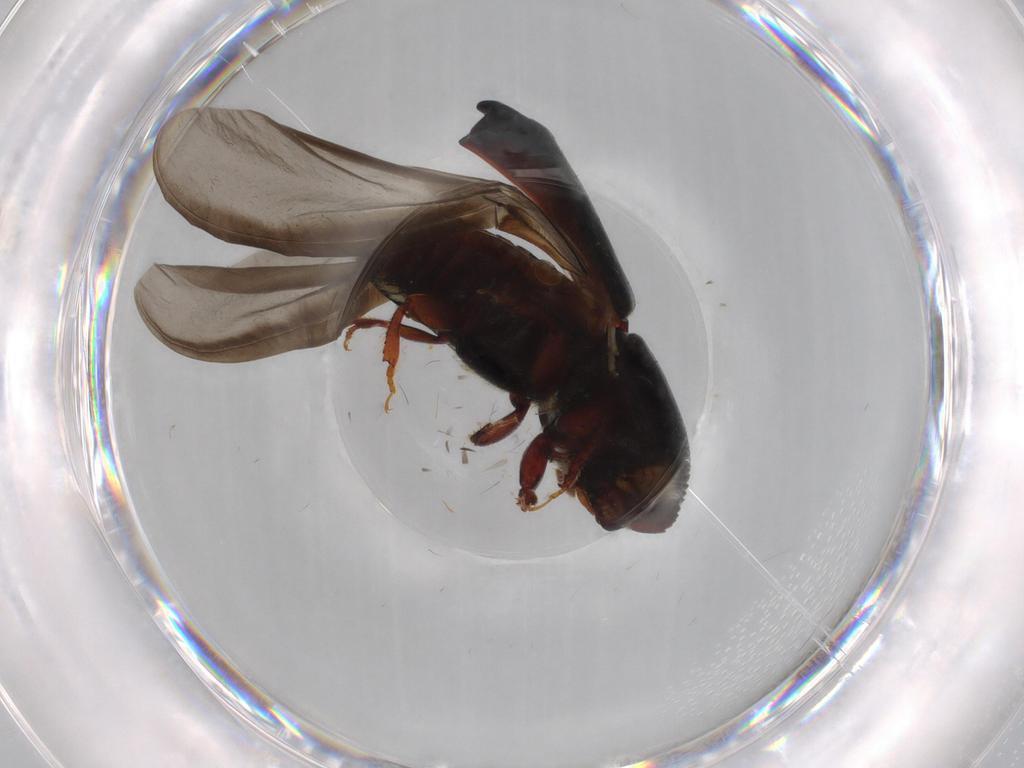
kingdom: Animalia
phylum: Arthropoda
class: Insecta
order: Coleoptera
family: Curculionidae
